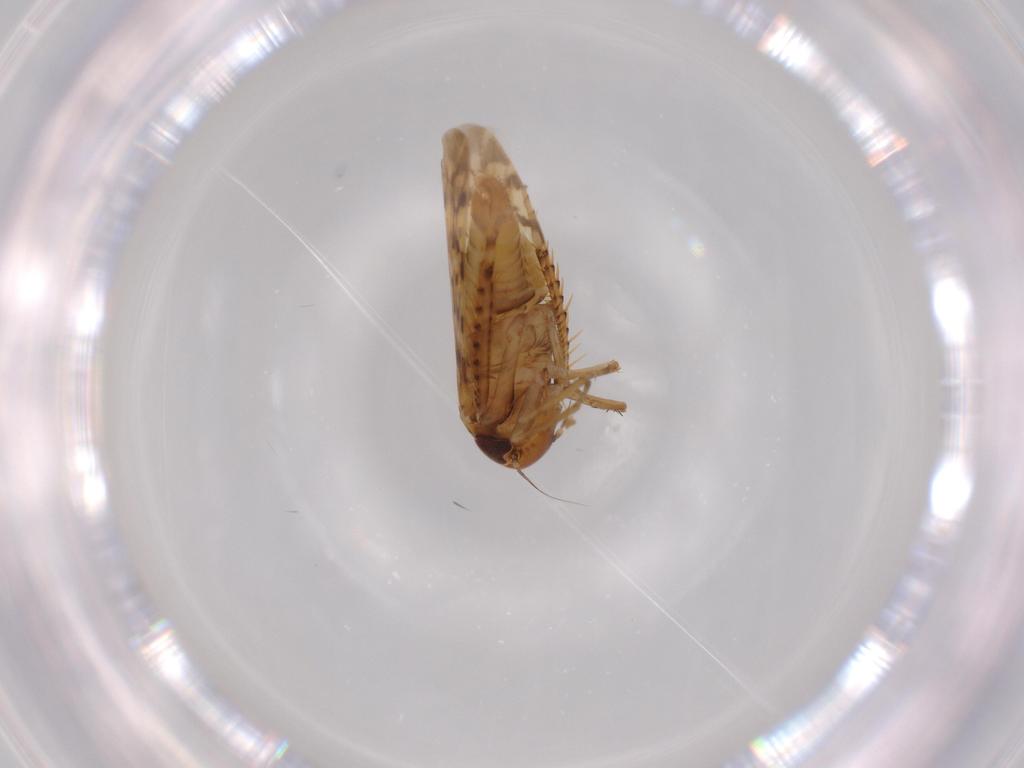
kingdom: Animalia
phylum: Arthropoda
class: Insecta
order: Hemiptera
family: Cicadellidae
